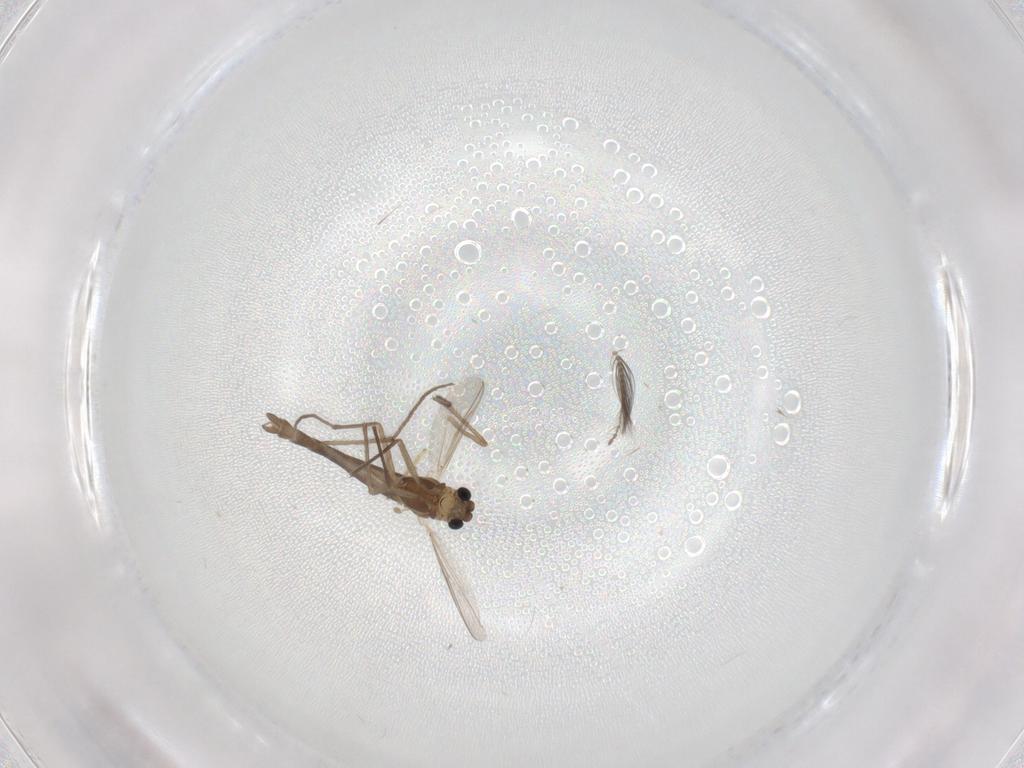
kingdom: Animalia
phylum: Arthropoda
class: Insecta
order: Diptera
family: Chironomidae
